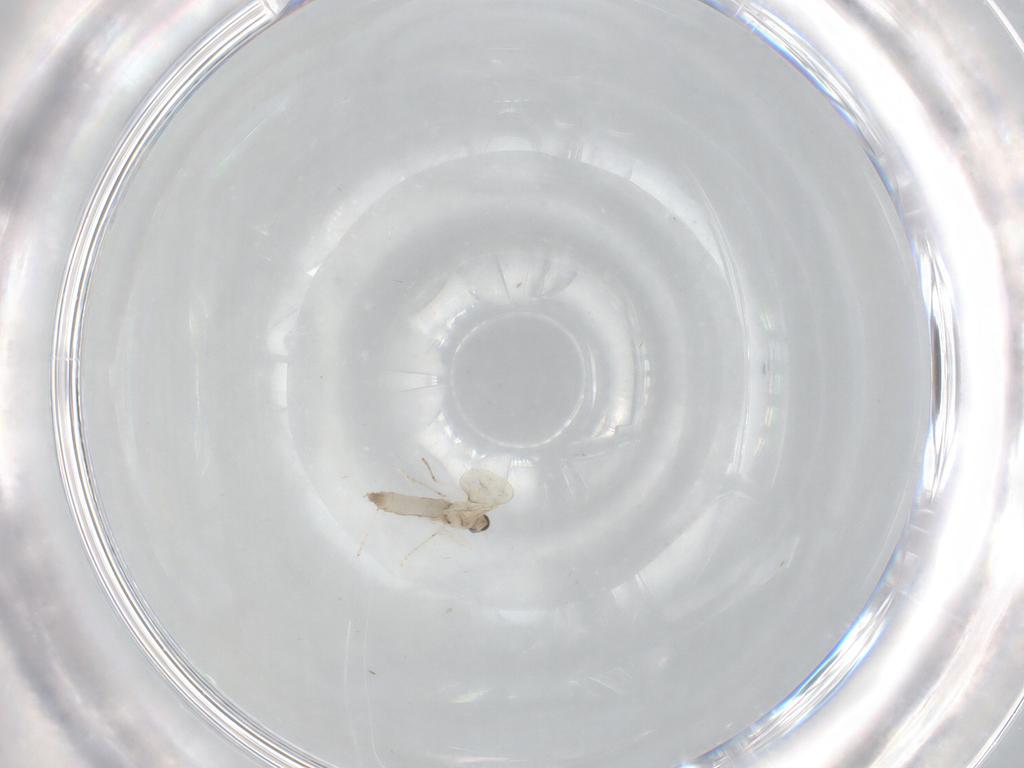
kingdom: Animalia
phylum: Arthropoda
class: Insecta
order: Diptera
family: Cecidomyiidae
